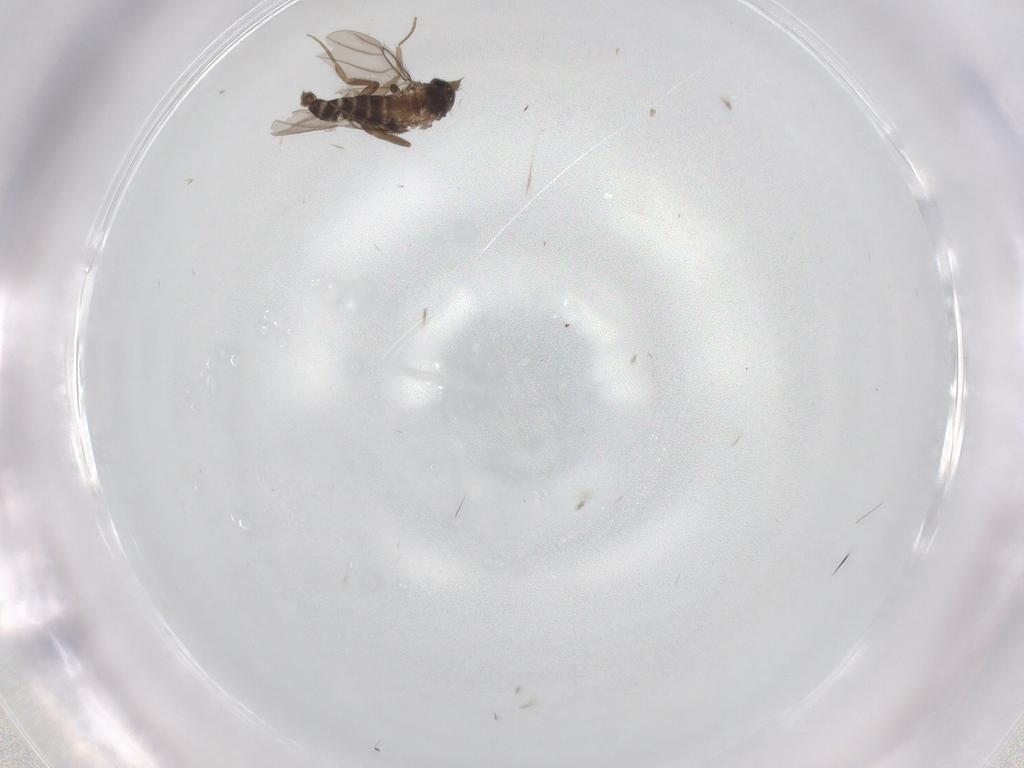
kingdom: Animalia
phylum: Arthropoda
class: Insecta
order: Diptera
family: Sciaridae
